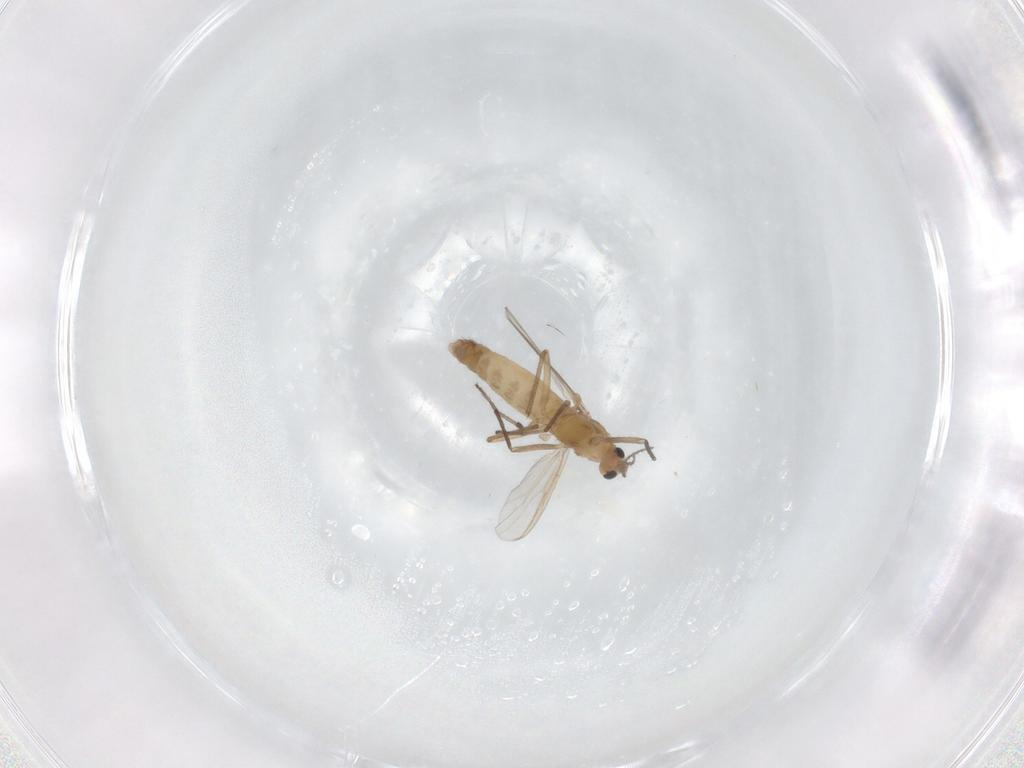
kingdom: Animalia
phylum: Arthropoda
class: Insecta
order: Diptera
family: Chironomidae
